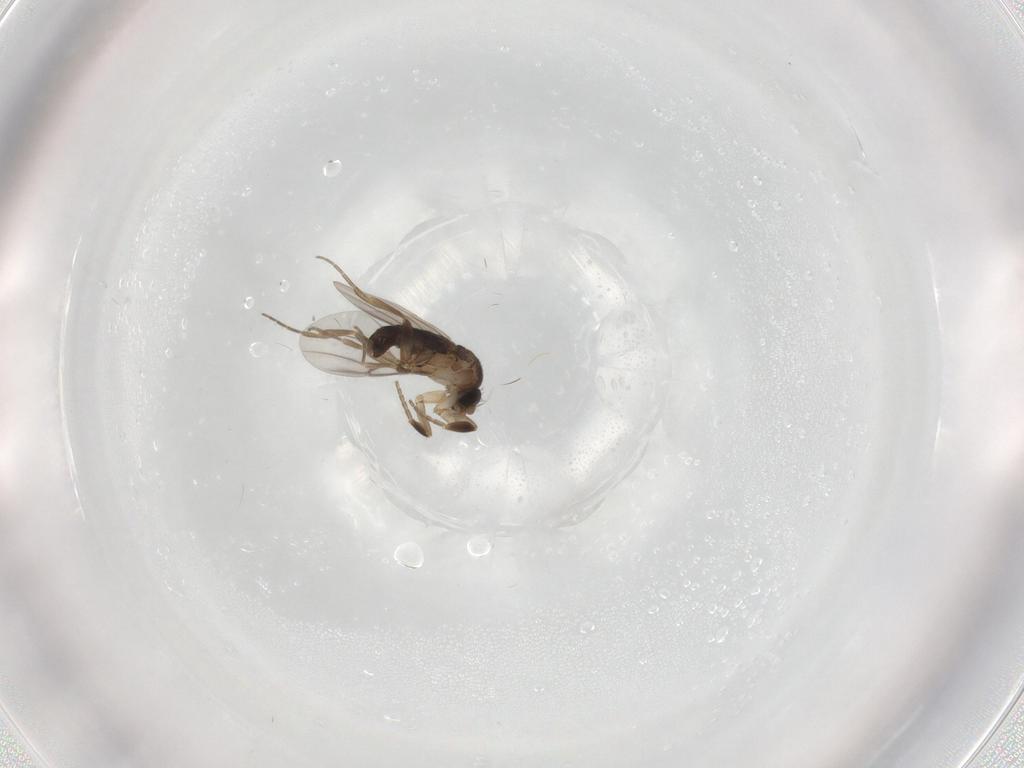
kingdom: Animalia
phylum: Arthropoda
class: Insecta
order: Diptera
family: Phoridae
